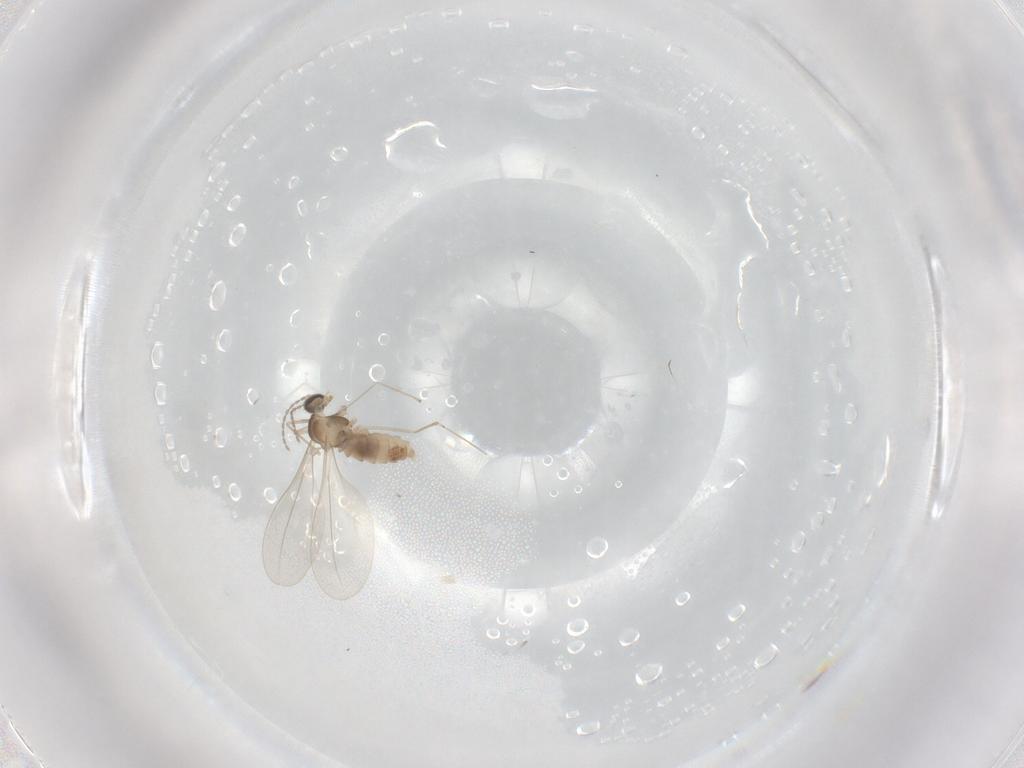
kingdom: Animalia
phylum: Arthropoda
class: Insecta
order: Diptera
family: Cecidomyiidae
